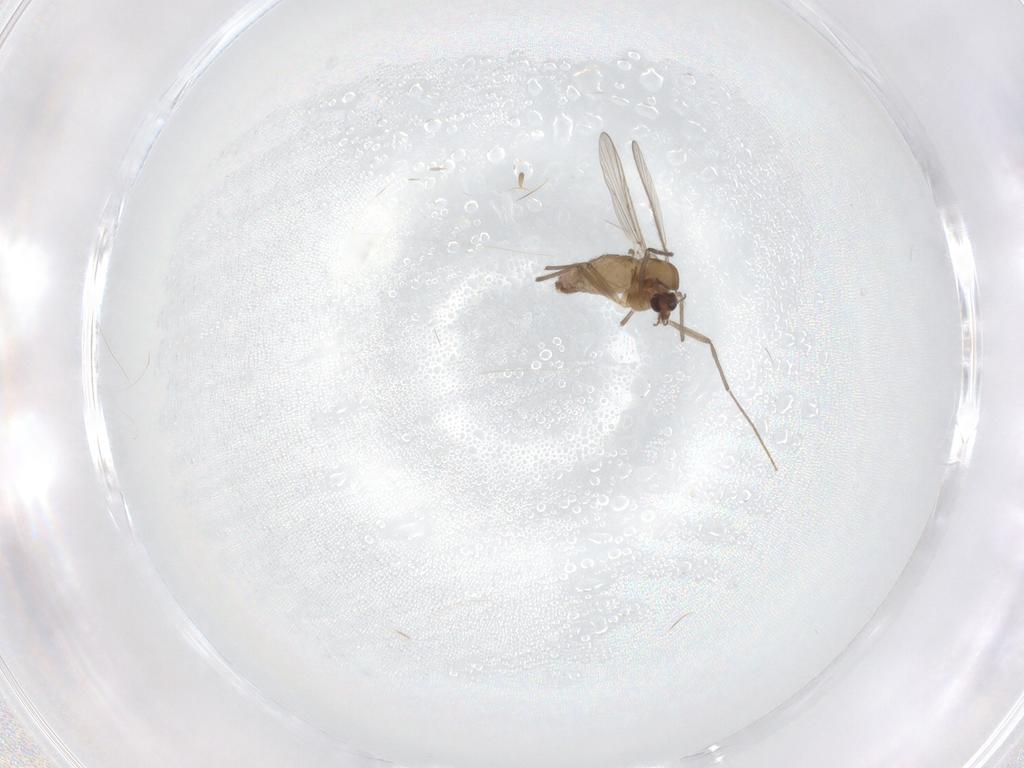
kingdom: Animalia
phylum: Arthropoda
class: Insecta
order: Diptera
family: Chironomidae
